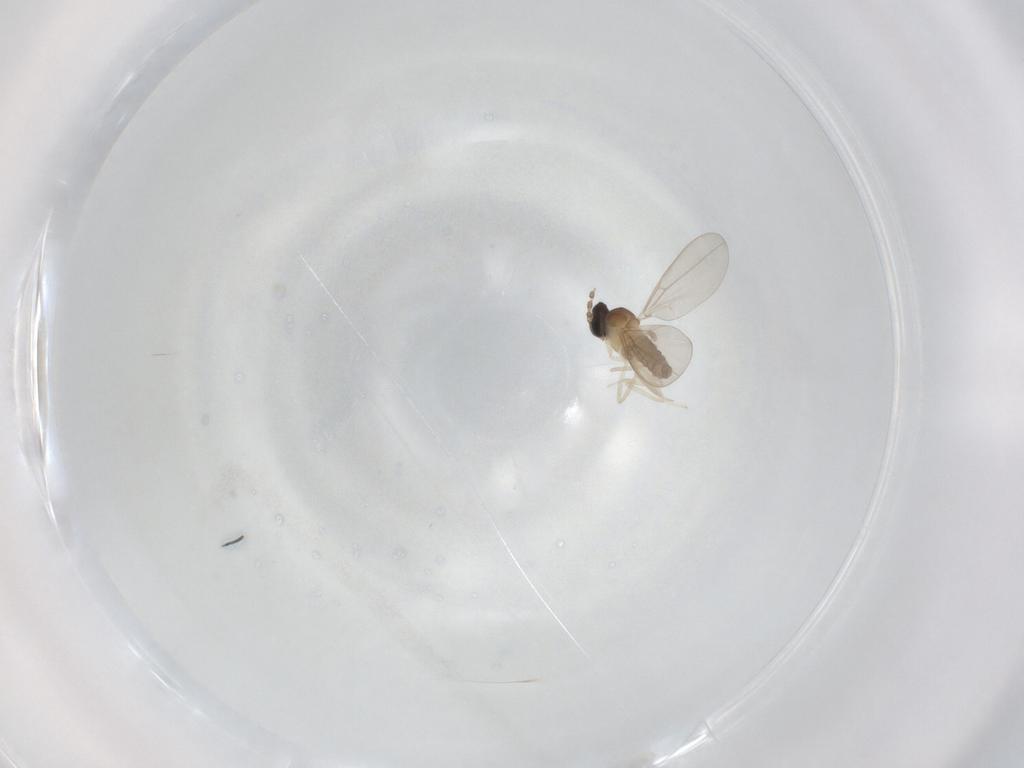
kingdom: Animalia
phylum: Arthropoda
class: Insecta
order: Diptera
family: Cecidomyiidae
